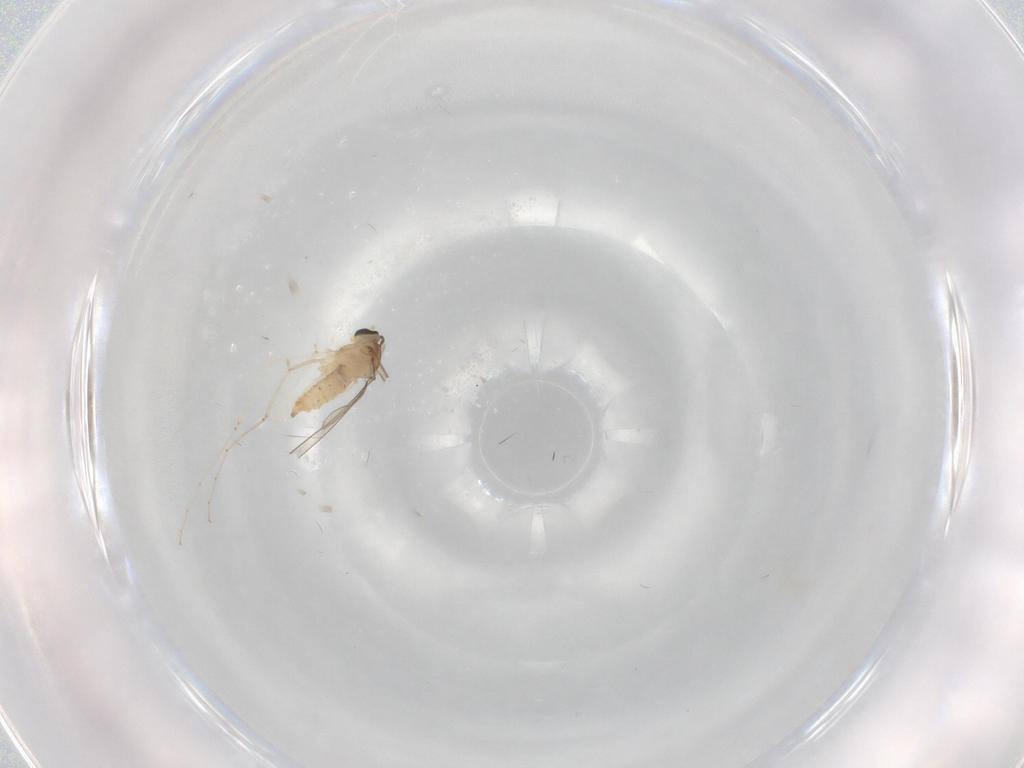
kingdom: Animalia
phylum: Arthropoda
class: Insecta
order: Diptera
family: Cecidomyiidae
